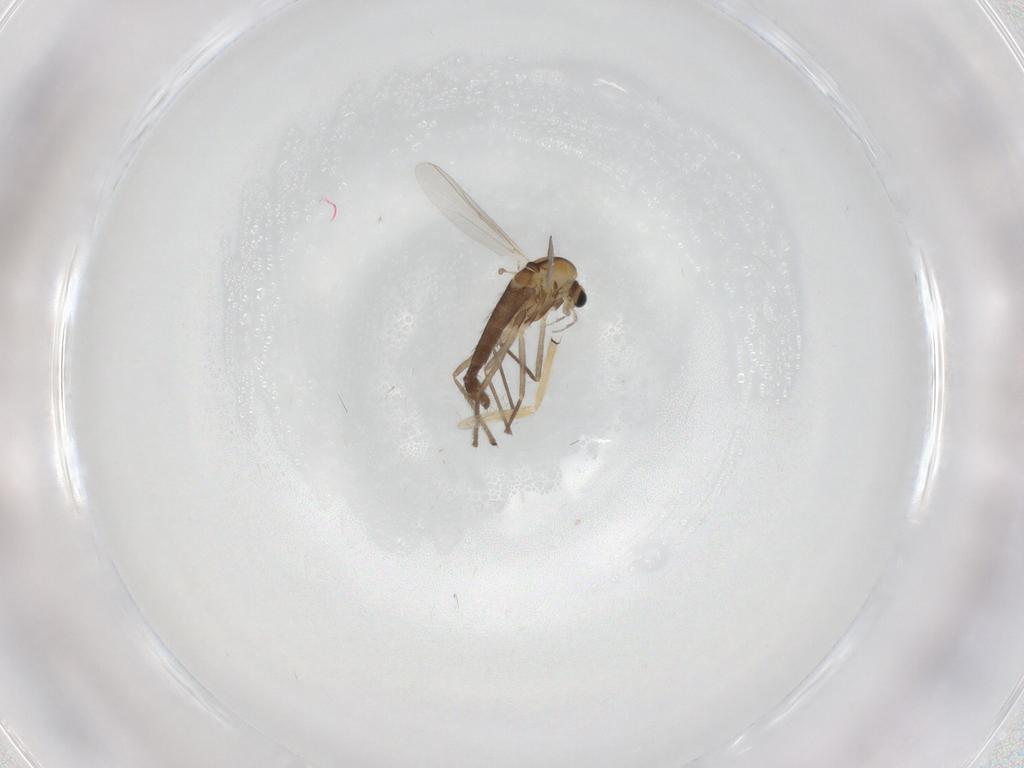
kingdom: Animalia
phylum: Arthropoda
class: Insecta
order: Diptera
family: Chironomidae
